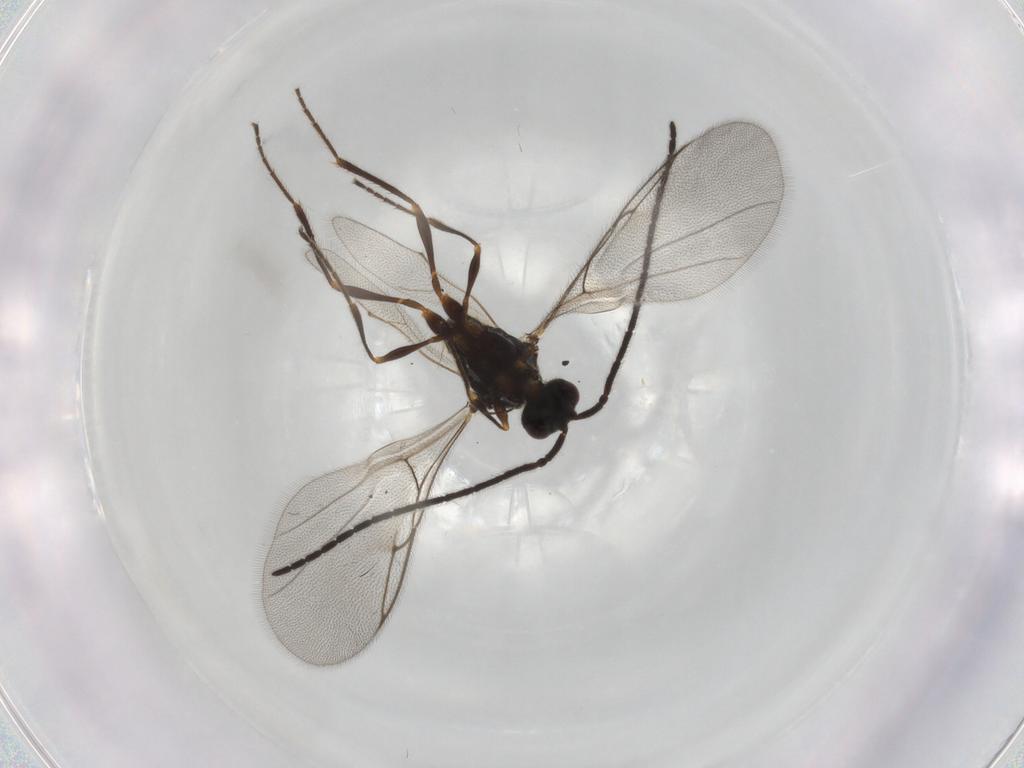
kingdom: Animalia
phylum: Arthropoda
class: Insecta
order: Hymenoptera
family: Diapriidae
